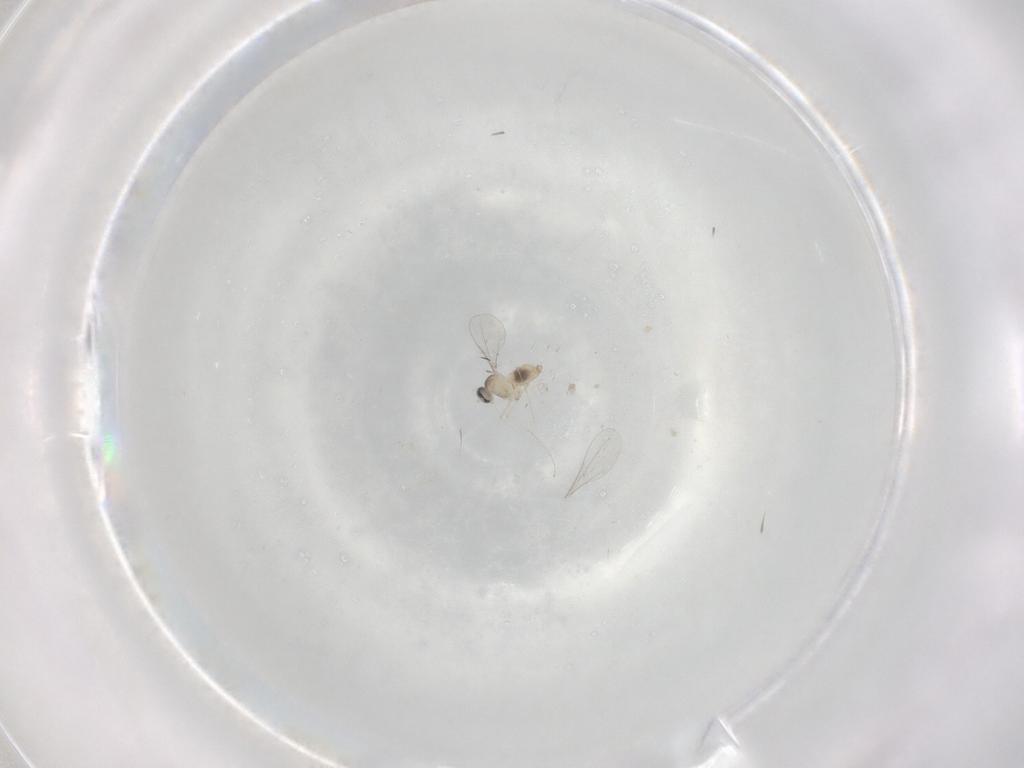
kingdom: Animalia
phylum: Arthropoda
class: Insecta
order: Diptera
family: Cecidomyiidae
